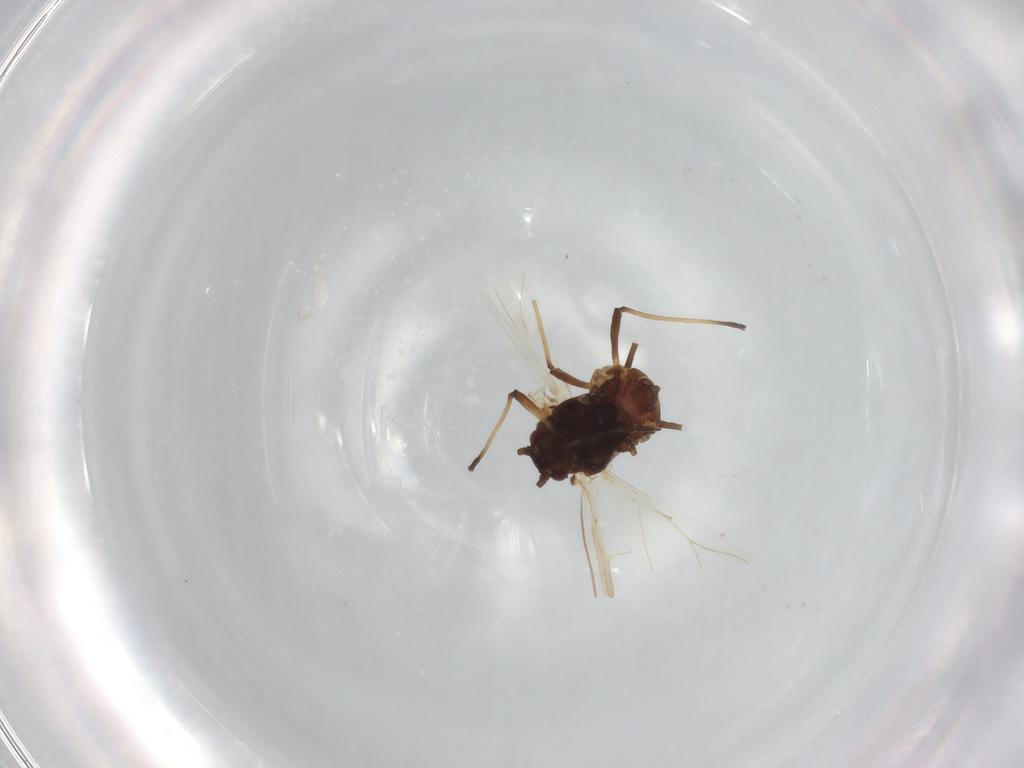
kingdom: Animalia
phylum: Arthropoda
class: Insecta
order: Hemiptera
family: Aphididae
